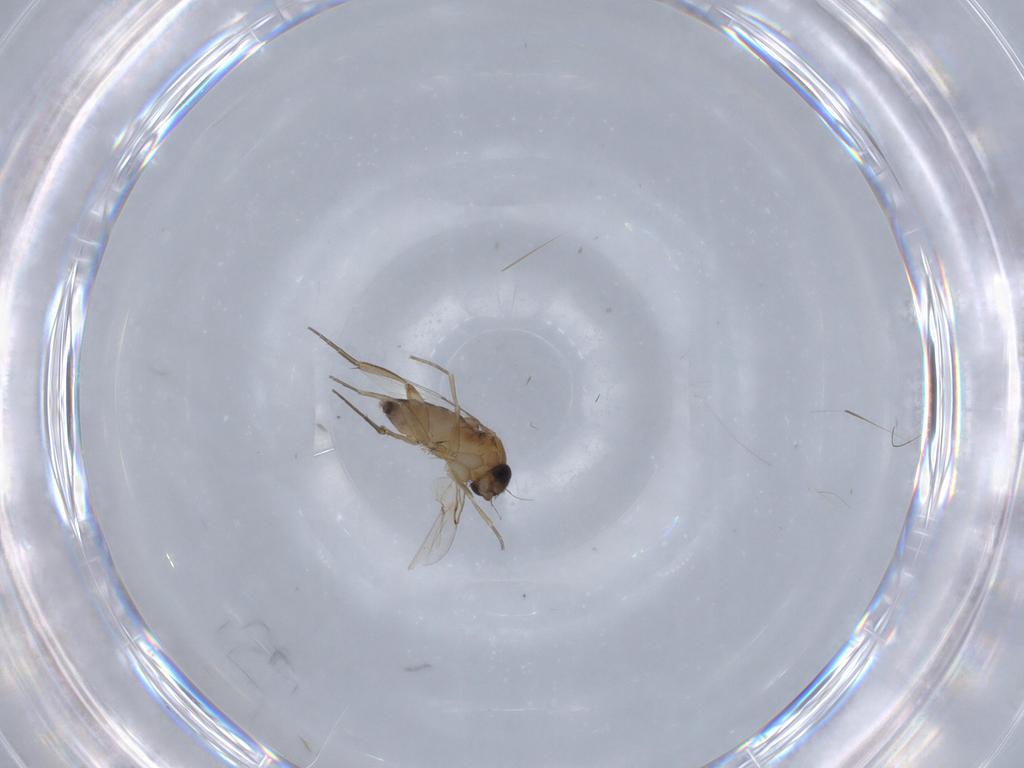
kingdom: Animalia
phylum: Arthropoda
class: Insecta
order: Diptera
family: Phoridae
